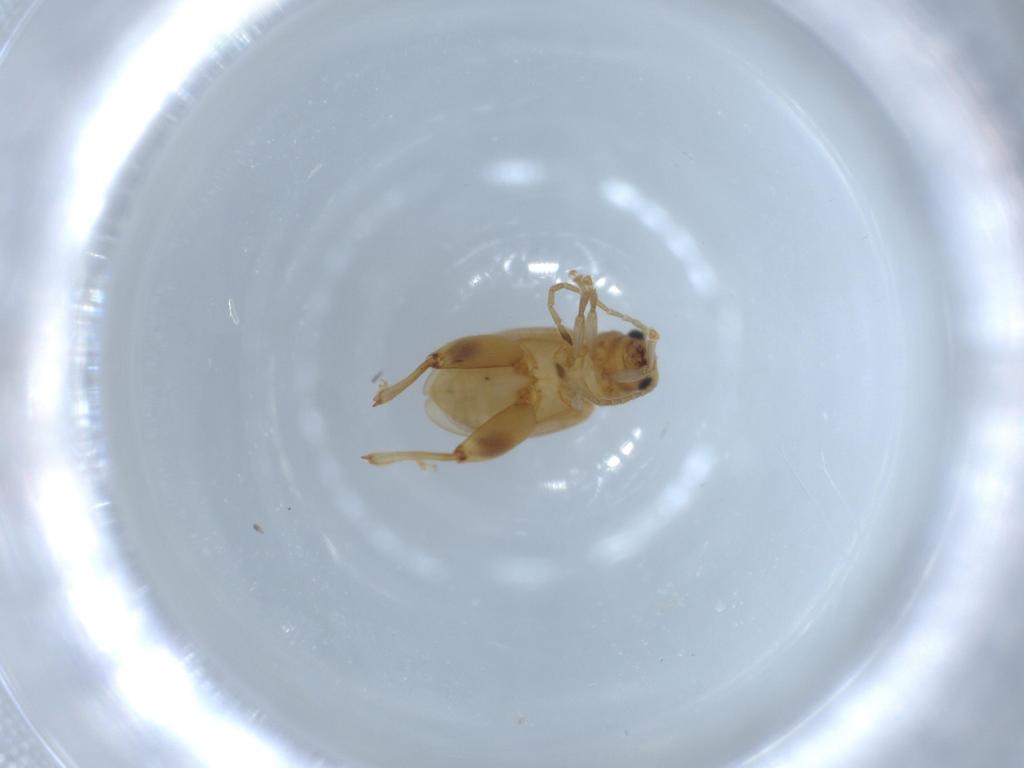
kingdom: Animalia
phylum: Arthropoda
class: Insecta
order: Coleoptera
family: Chrysomelidae
